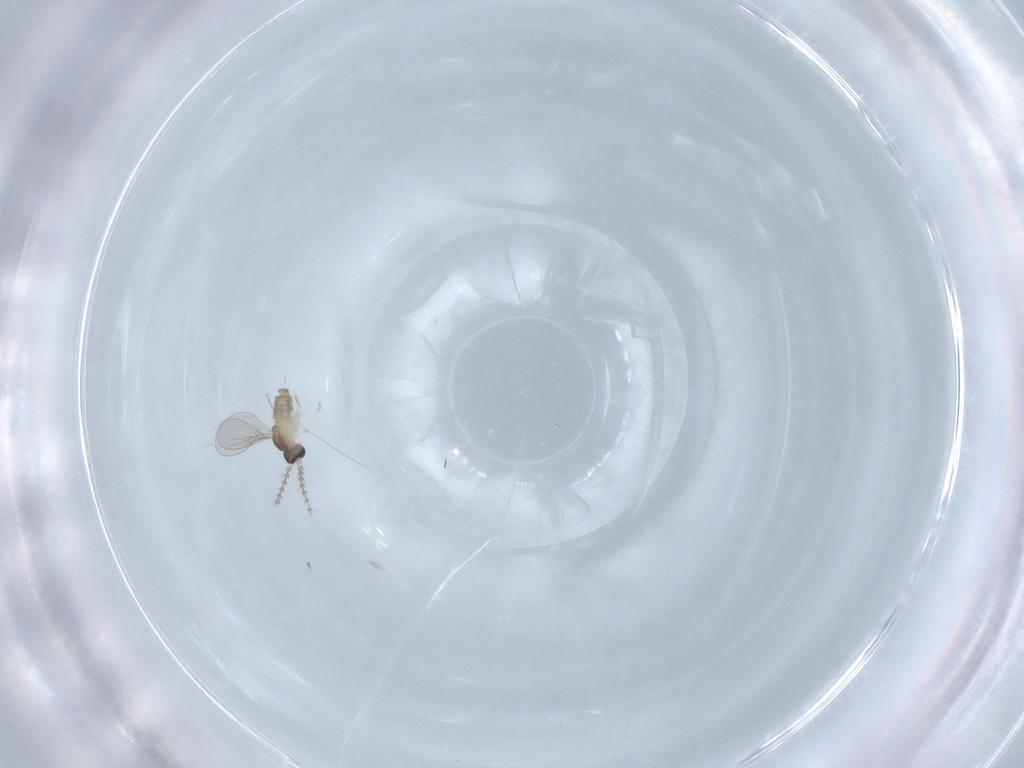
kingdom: Animalia
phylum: Arthropoda
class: Insecta
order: Diptera
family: Cecidomyiidae
